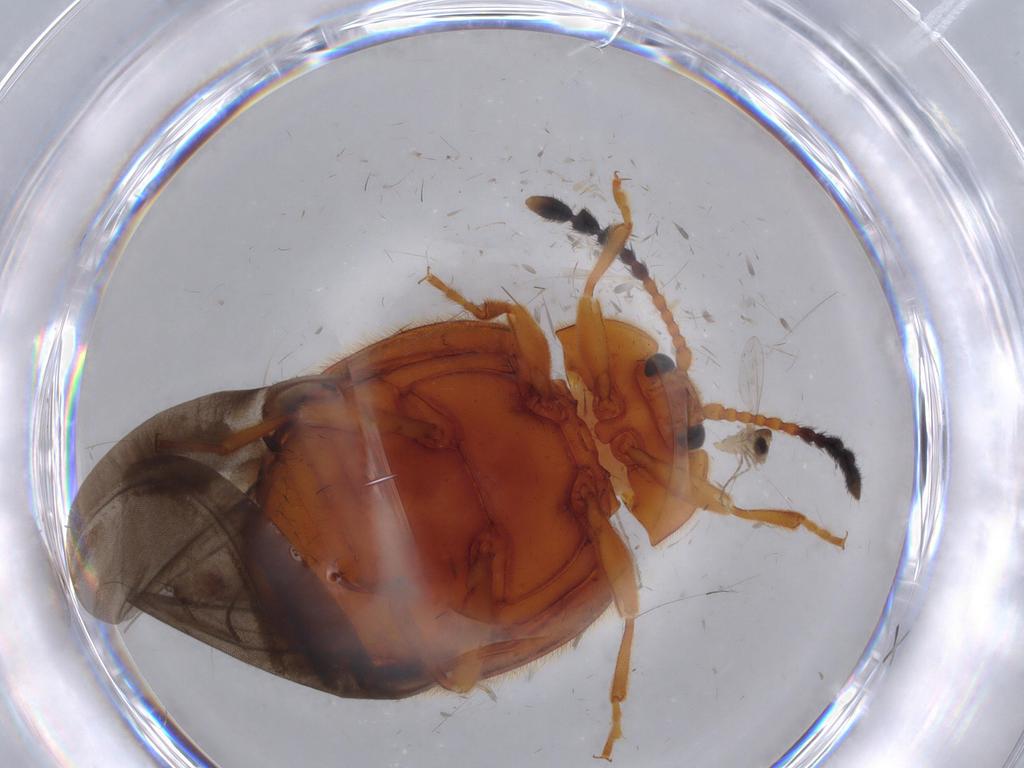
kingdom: Animalia
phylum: Arthropoda
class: Insecta
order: Coleoptera
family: Endomychidae
